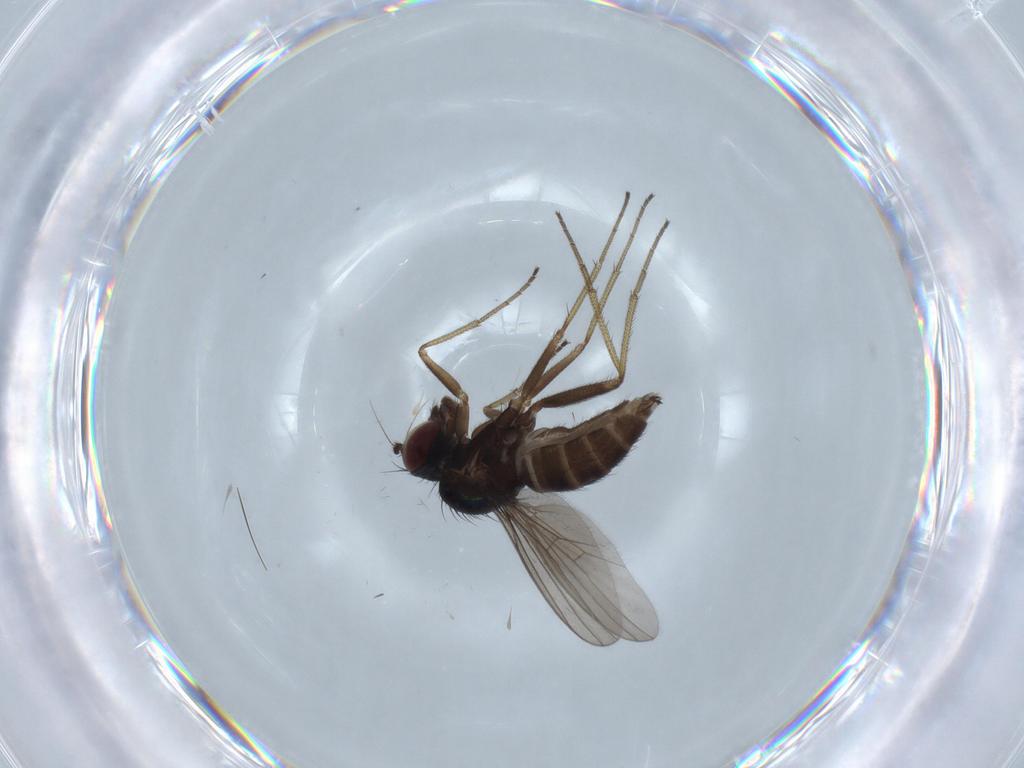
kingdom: Animalia
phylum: Arthropoda
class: Insecta
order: Diptera
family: Dolichopodidae
